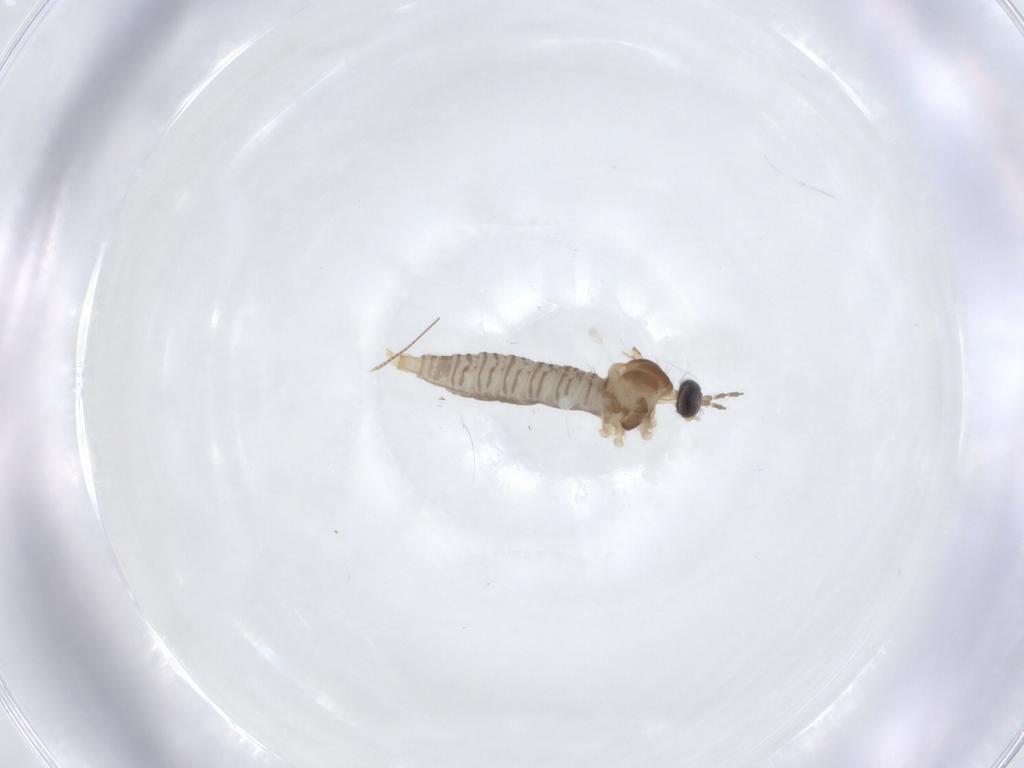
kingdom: Animalia
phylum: Arthropoda
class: Insecta
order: Diptera
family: Cecidomyiidae
